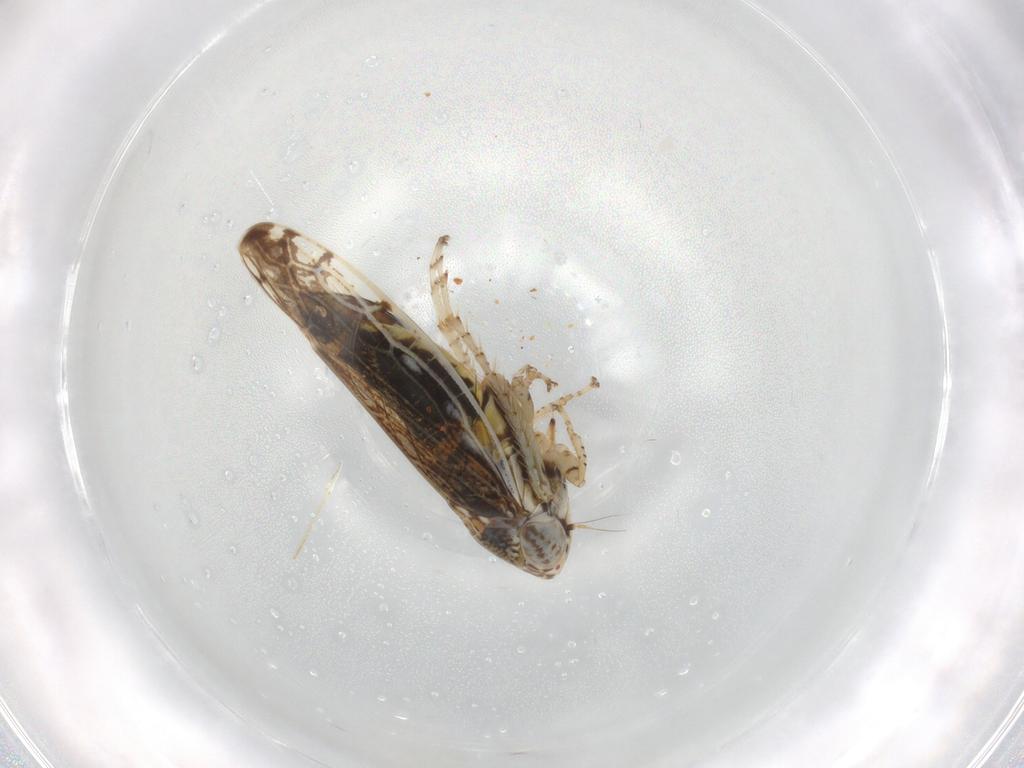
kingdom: Animalia
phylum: Arthropoda
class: Insecta
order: Hemiptera
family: Cicadellidae
